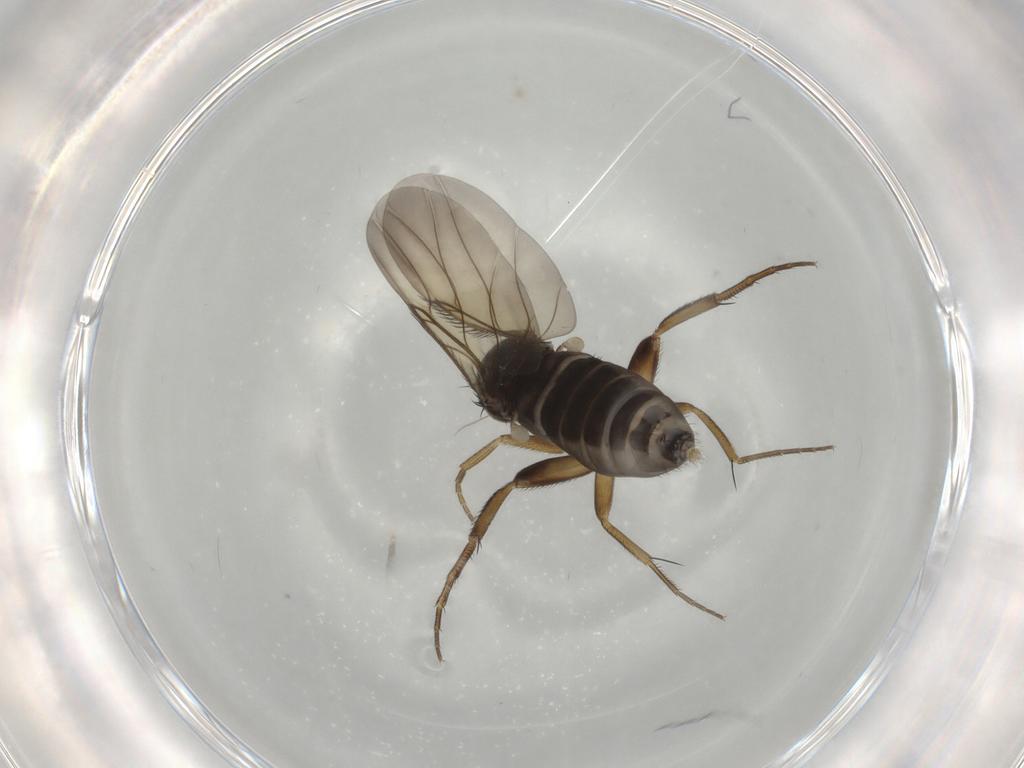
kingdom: Animalia
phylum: Arthropoda
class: Insecta
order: Diptera
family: Phoridae
